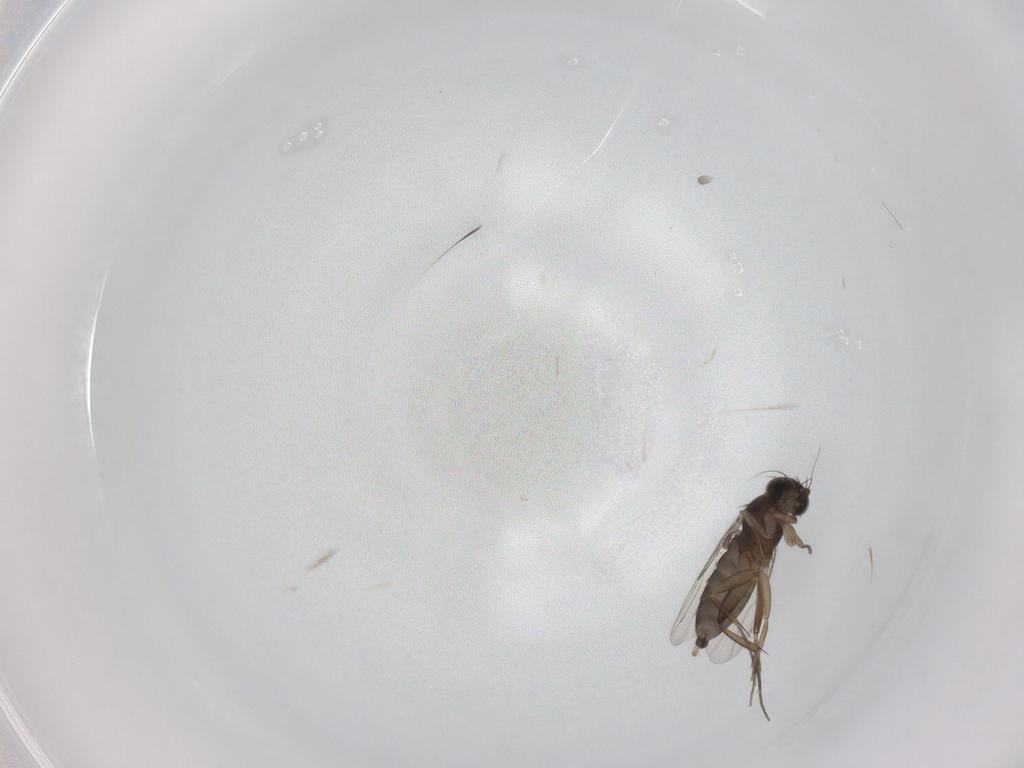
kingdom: Animalia
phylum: Arthropoda
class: Insecta
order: Diptera
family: Phoridae
